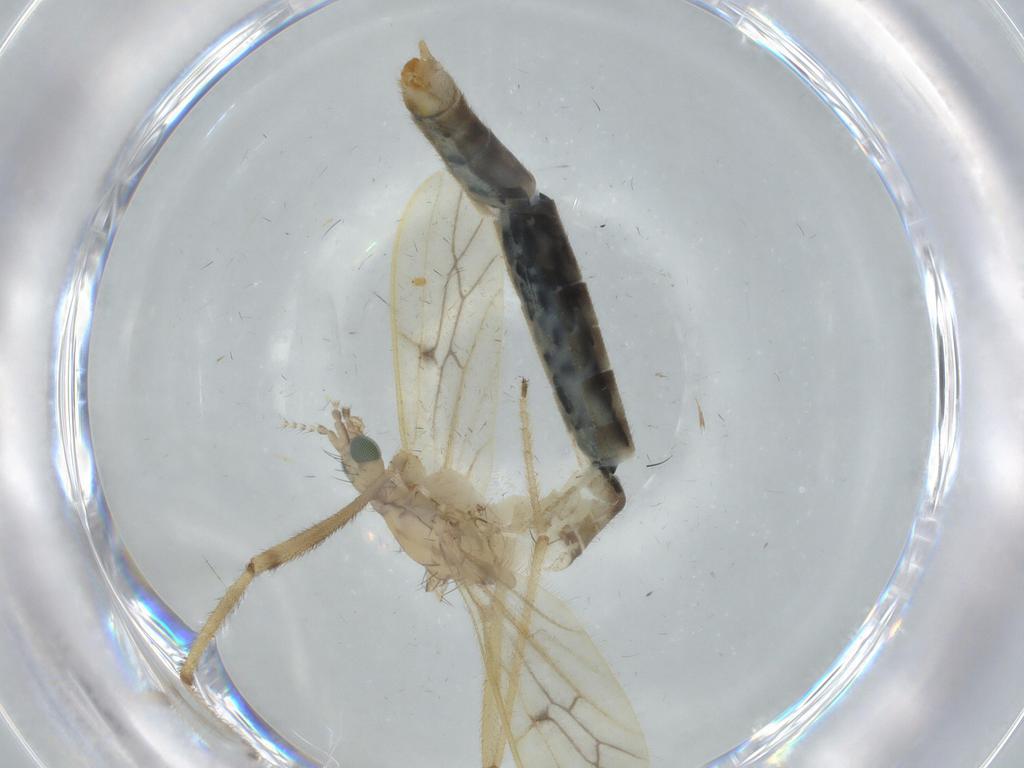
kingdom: Animalia
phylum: Arthropoda
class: Insecta
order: Diptera
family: Limoniidae
